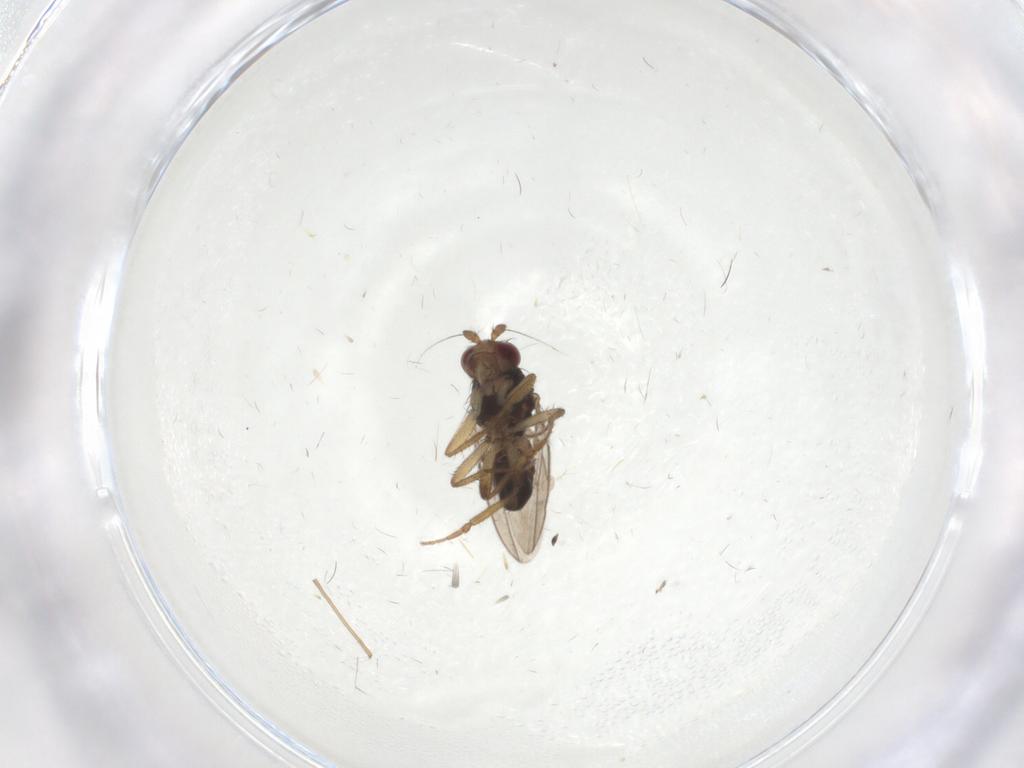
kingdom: Animalia
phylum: Arthropoda
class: Insecta
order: Diptera
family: Sphaeroceridae
